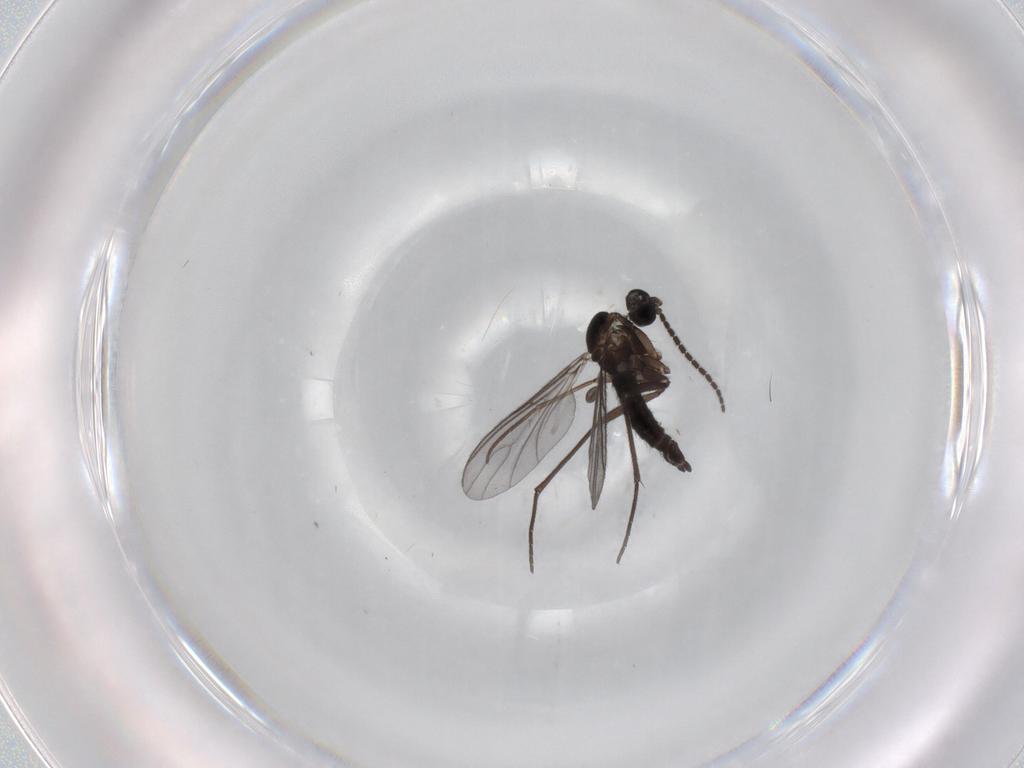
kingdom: Animalia
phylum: Arthropoda
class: Insecta
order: Diptera
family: Sciaridae
